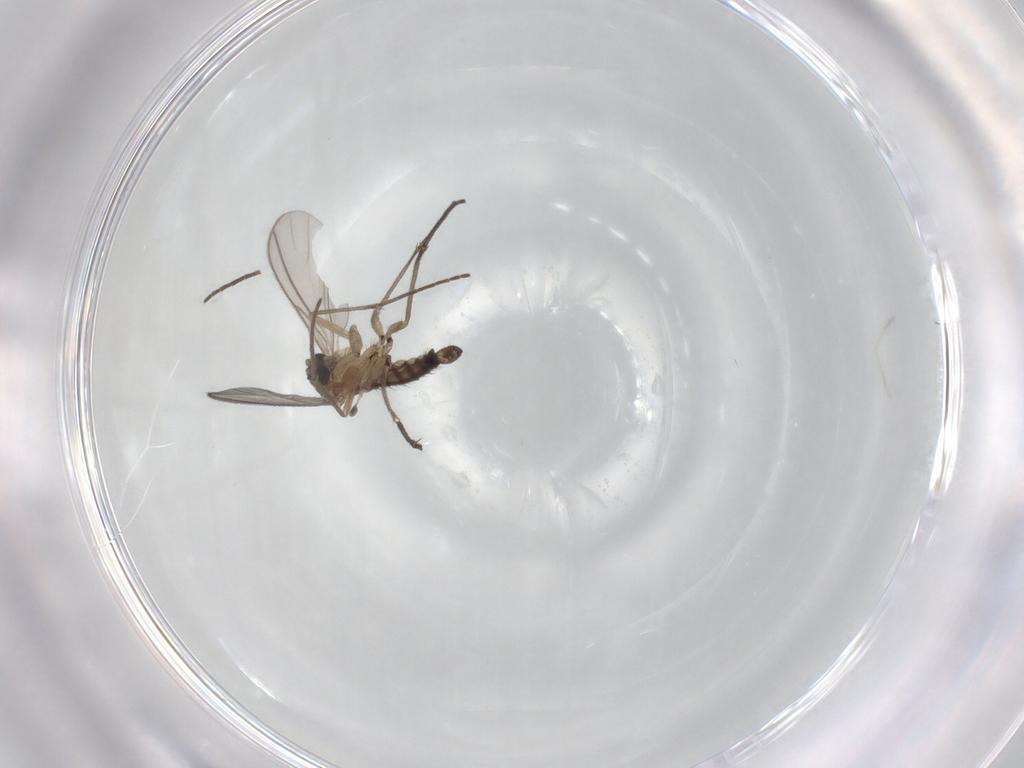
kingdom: Animalia
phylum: Arthropoda
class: Insecta
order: Diptera
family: Sciaridae
